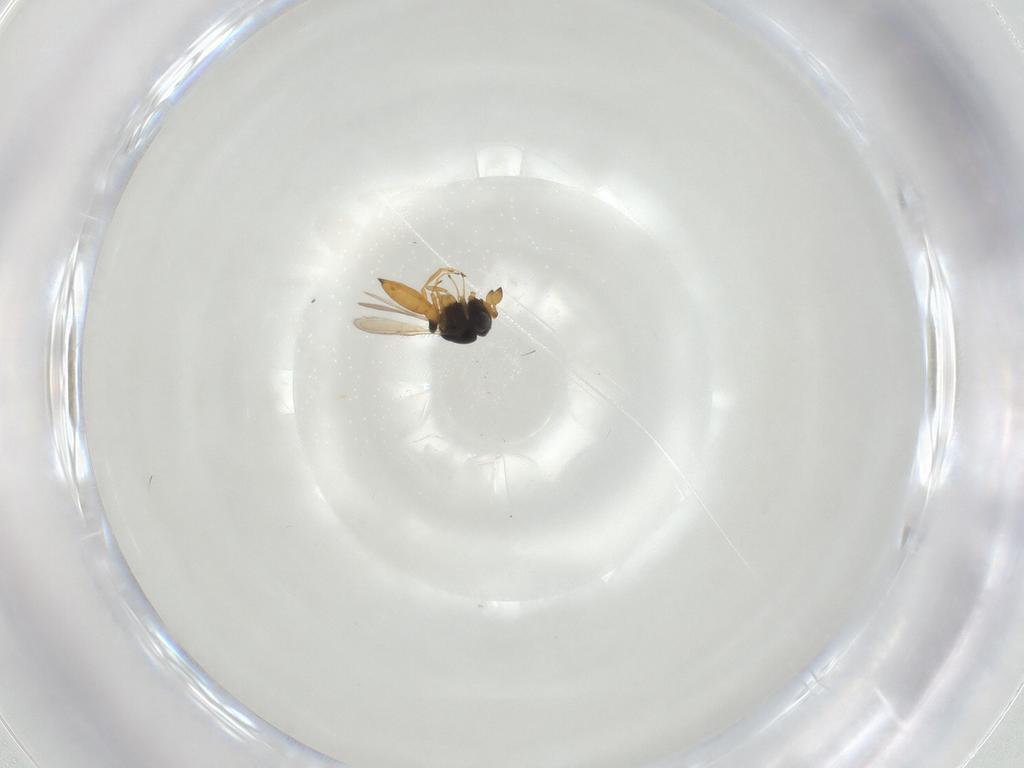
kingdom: Animalia
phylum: Arthropoda
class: Insecta
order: Hymenoptera
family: Scelionidae
